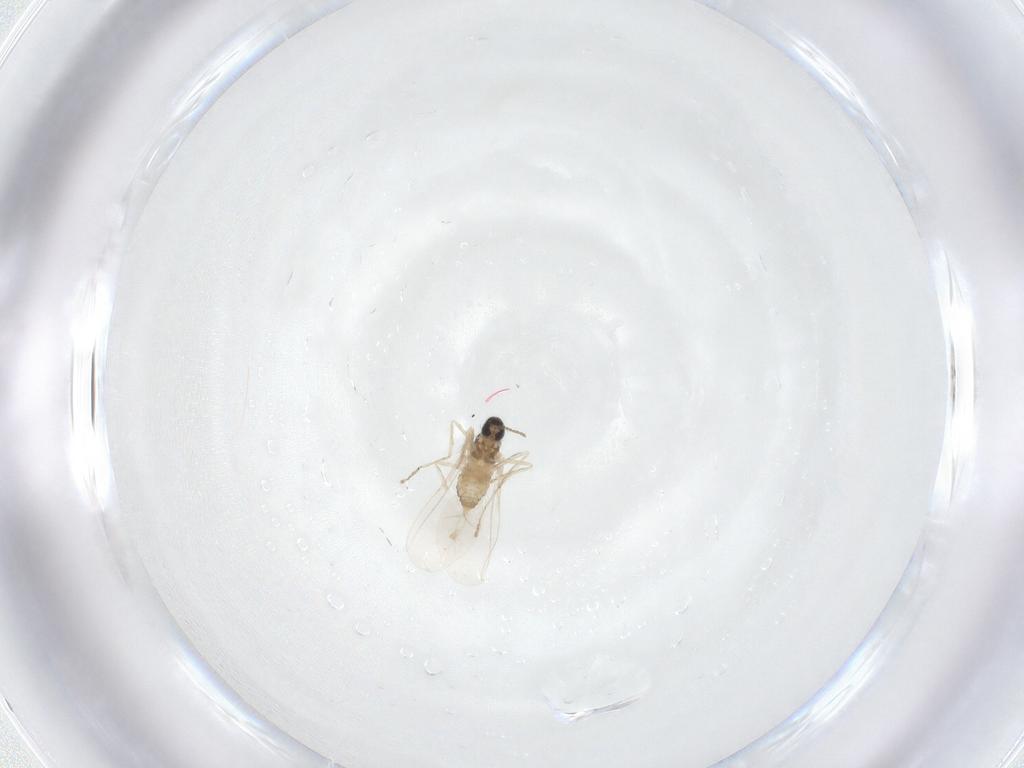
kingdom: Animalia
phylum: Arthropoda
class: Insecta
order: Diptera
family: Cecidomyiidae
